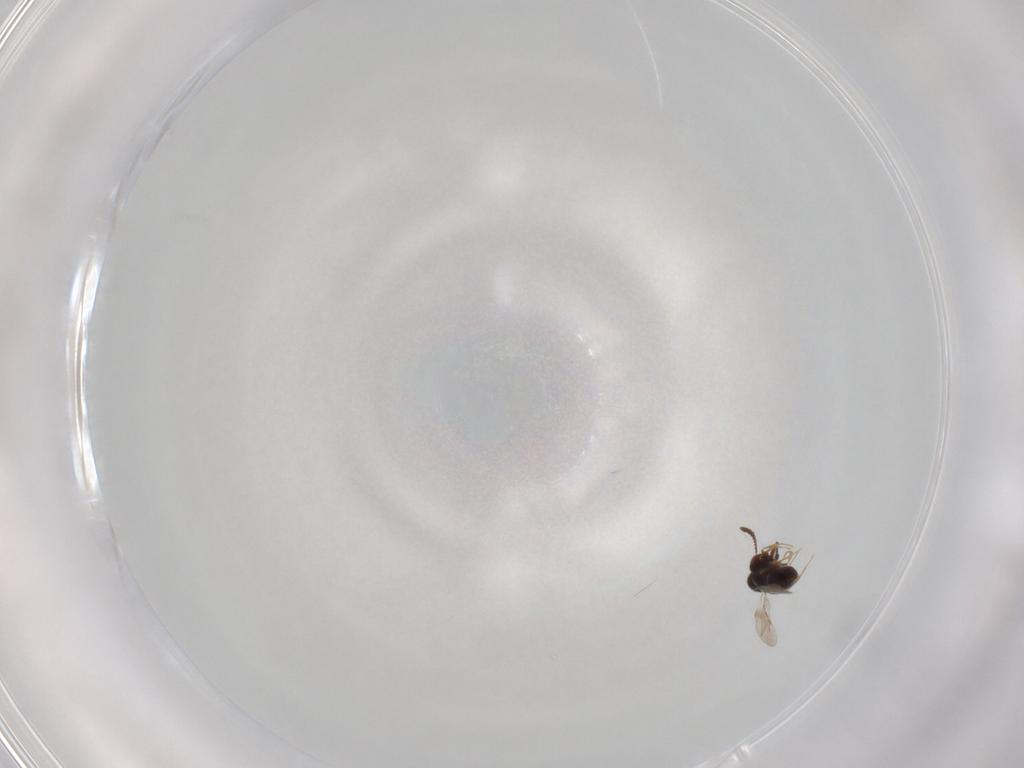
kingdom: Animalia
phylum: Arthropoda
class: Insecta
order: Hymenoptera
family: Ceraphronidae
